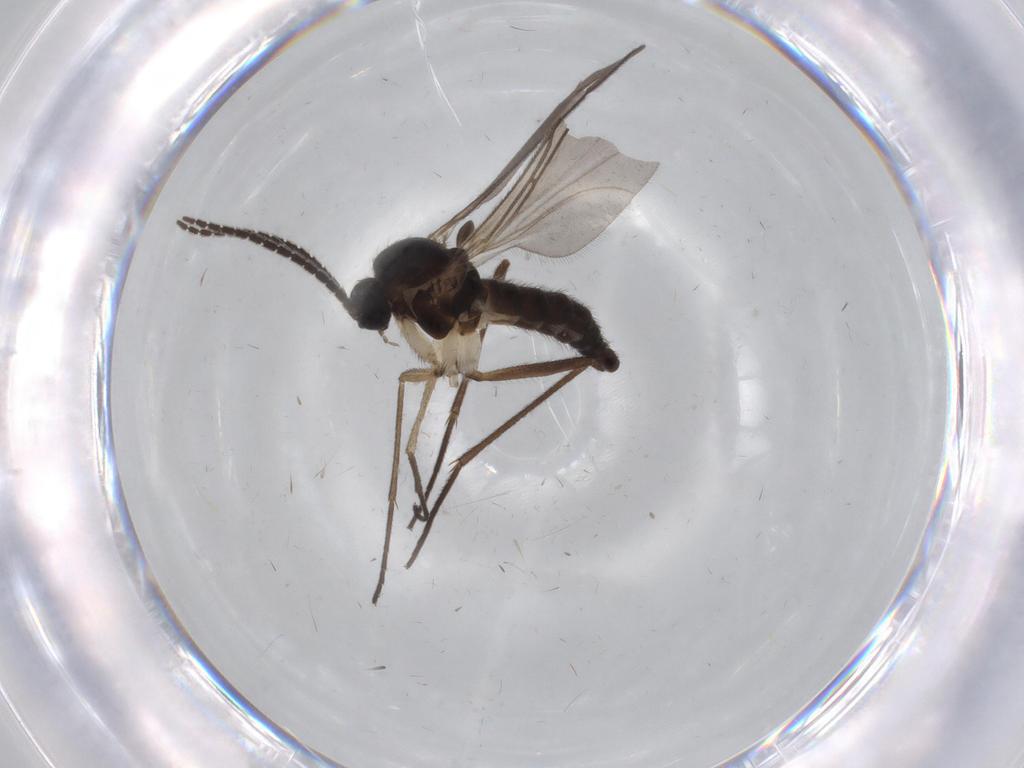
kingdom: Animalia
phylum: Arthropoda
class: Insecta
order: Diptera
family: Sciaridae
